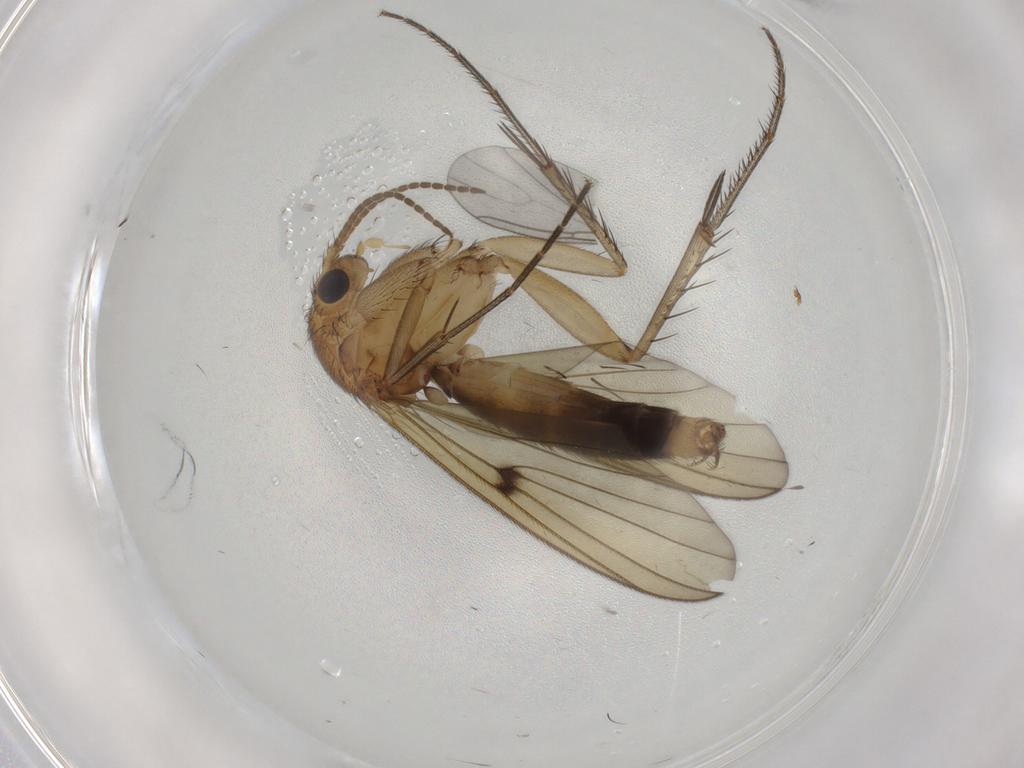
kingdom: Animalia
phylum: Arthropoda
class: Insecta
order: Diptera
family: Mycetophilidae
